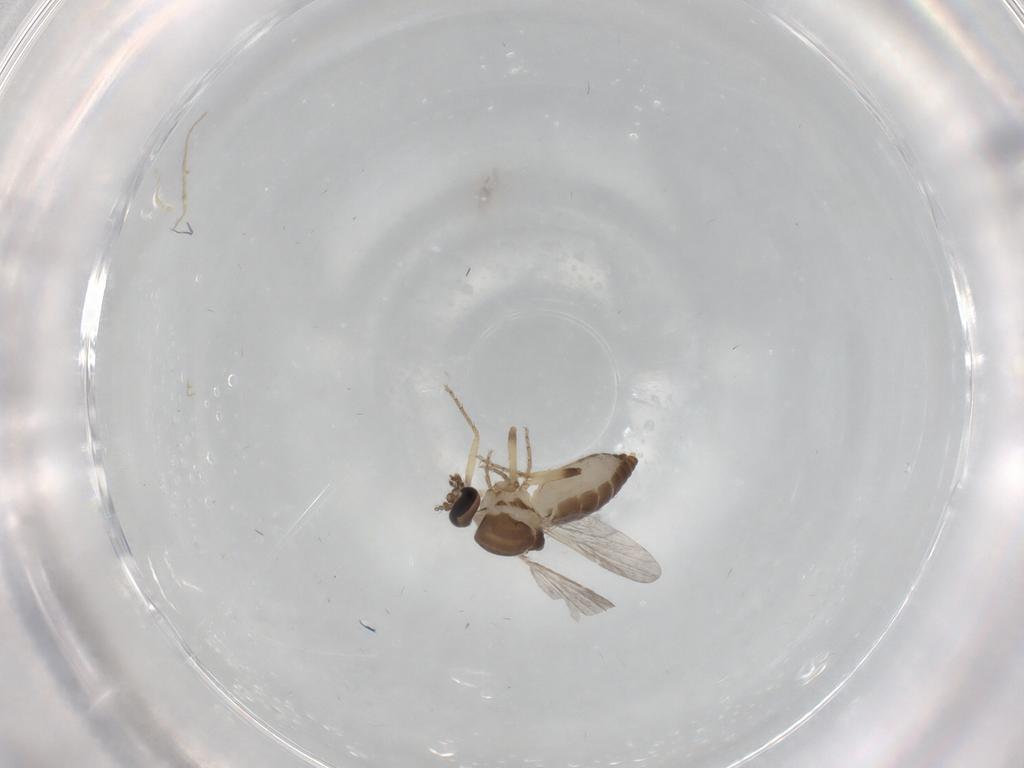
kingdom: Animalia
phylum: Arthropoda
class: Insecta
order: Diptera
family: Ceratopogonidae
